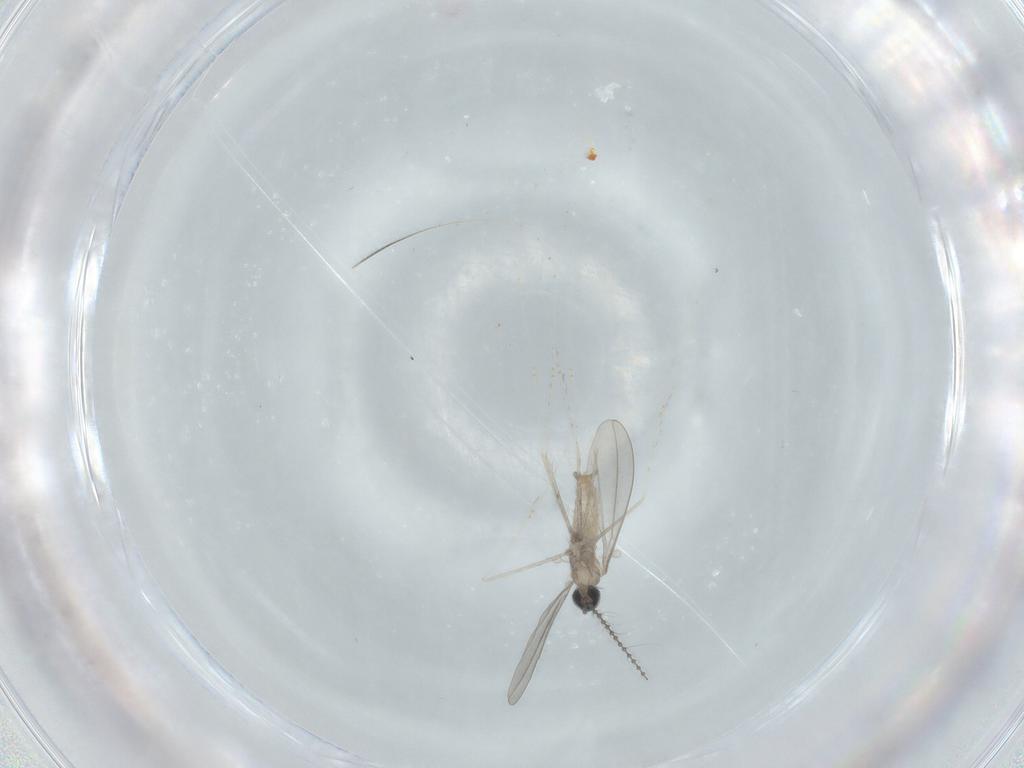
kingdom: Animalia
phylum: Arthropoda
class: Insecta
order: Diptera
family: Cecidomyiidae
